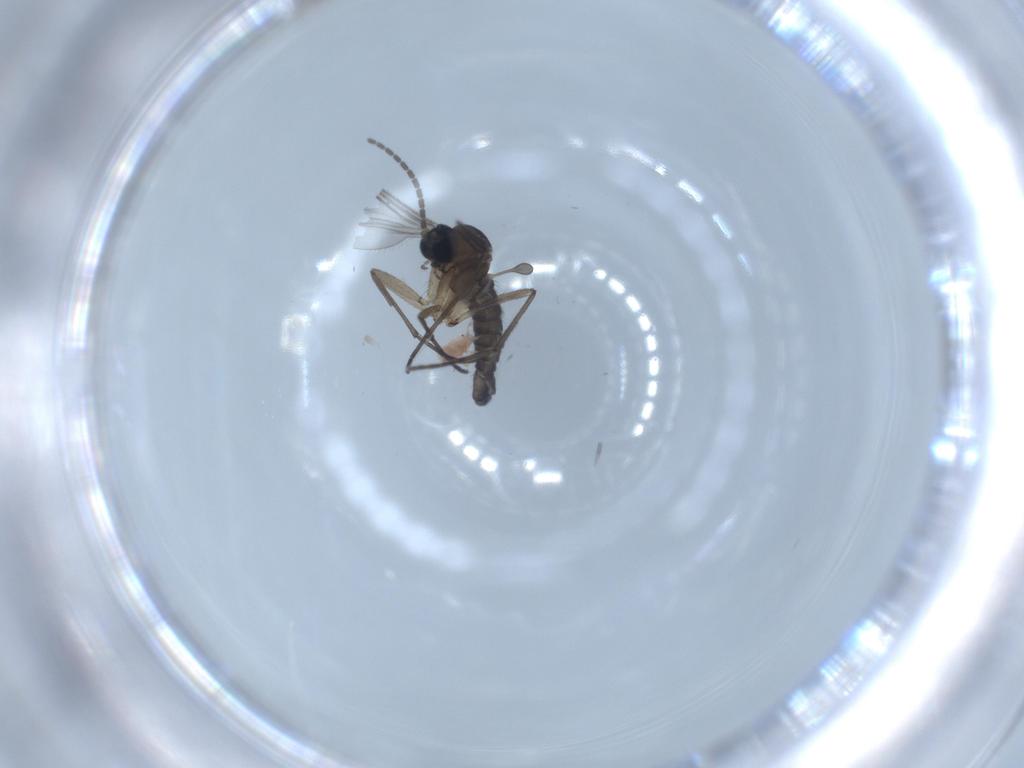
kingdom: Animalia
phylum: Arthropoda
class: Insecta
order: Diptera
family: Sciaridae
